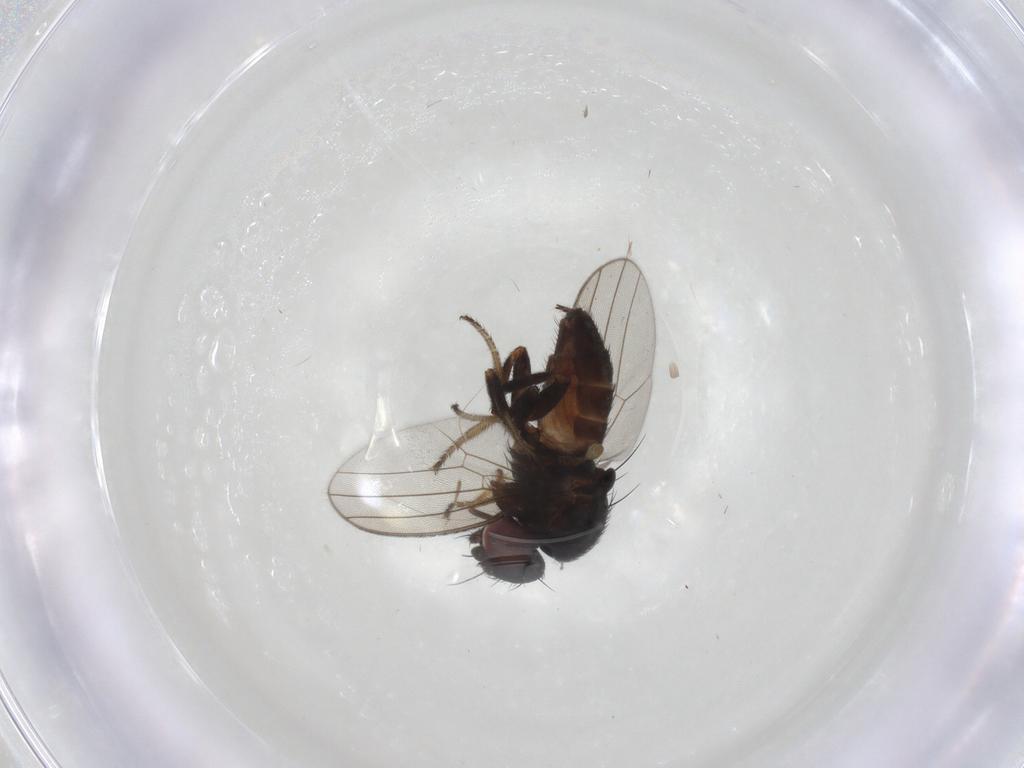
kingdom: Animalia
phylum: Arthropoda
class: Insecta
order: Diptera
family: Milichiidae
